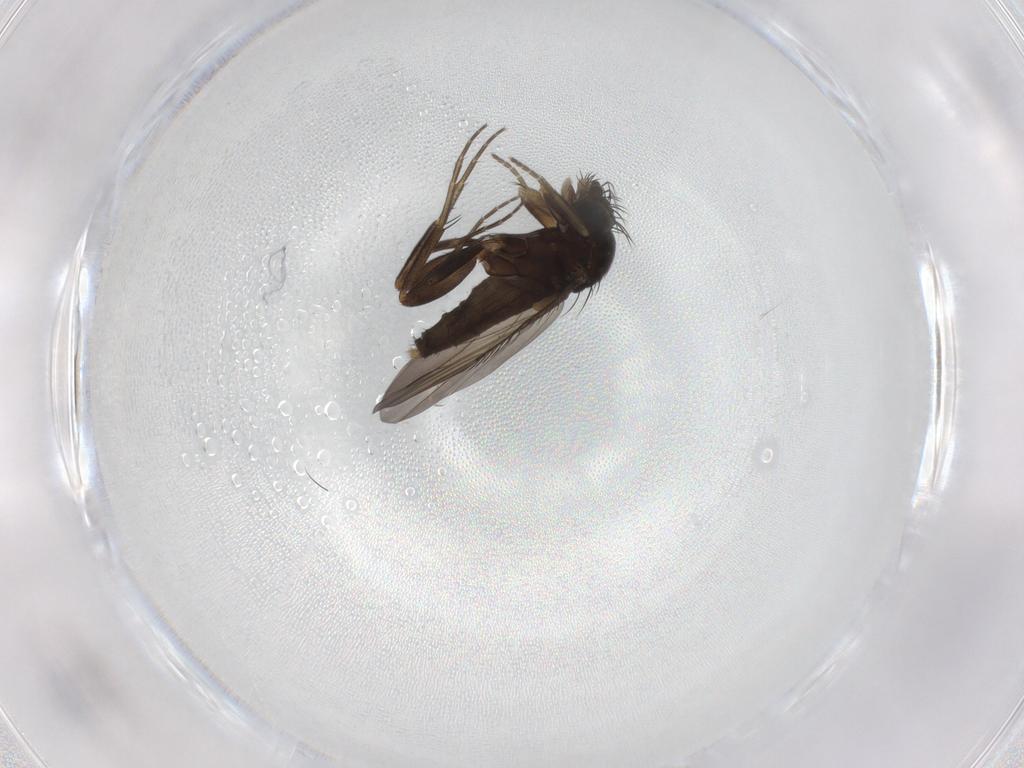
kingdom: Animalia
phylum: Arthropoda
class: Insecta
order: Diptera
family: Phoridae
